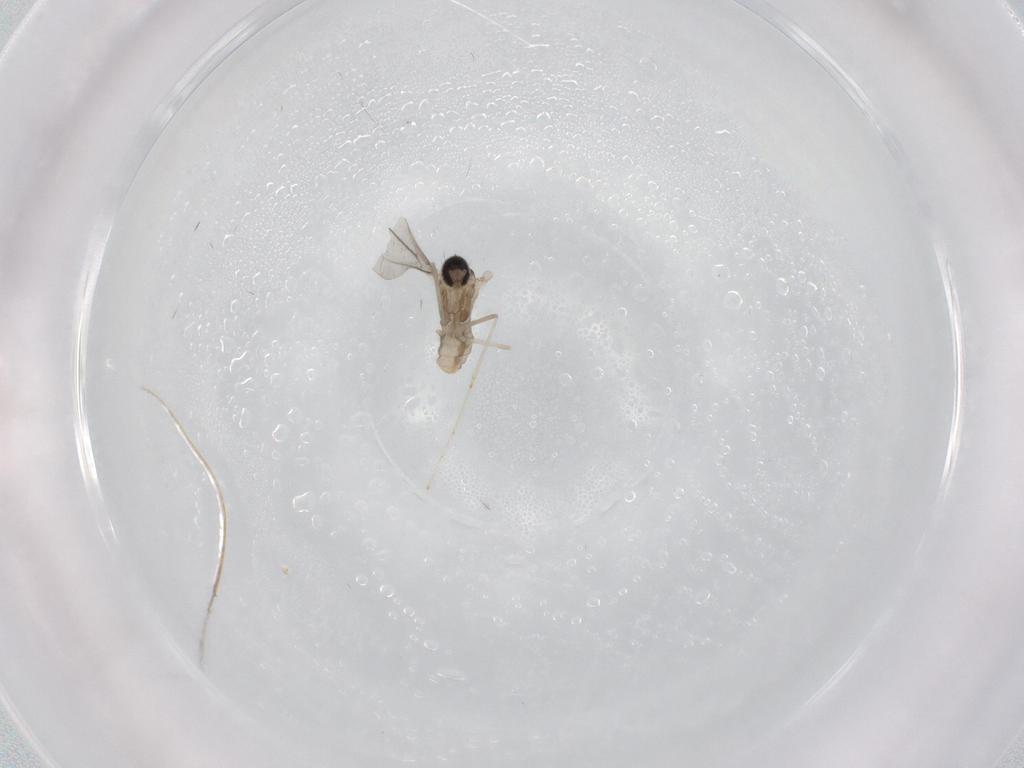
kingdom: Animalia
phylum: Arthropoda
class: Insecta
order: Diptera
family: Cecidomyiidae
